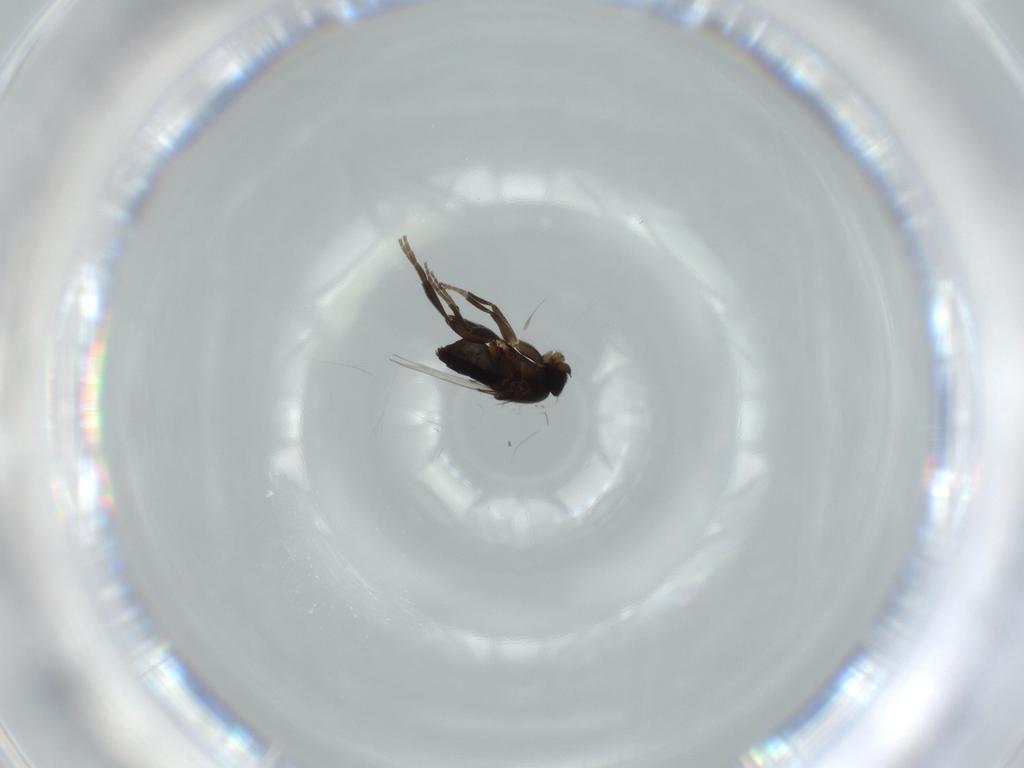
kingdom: Animalia
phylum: Arthropoda
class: Insecta
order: Diptera
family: Phoridae
